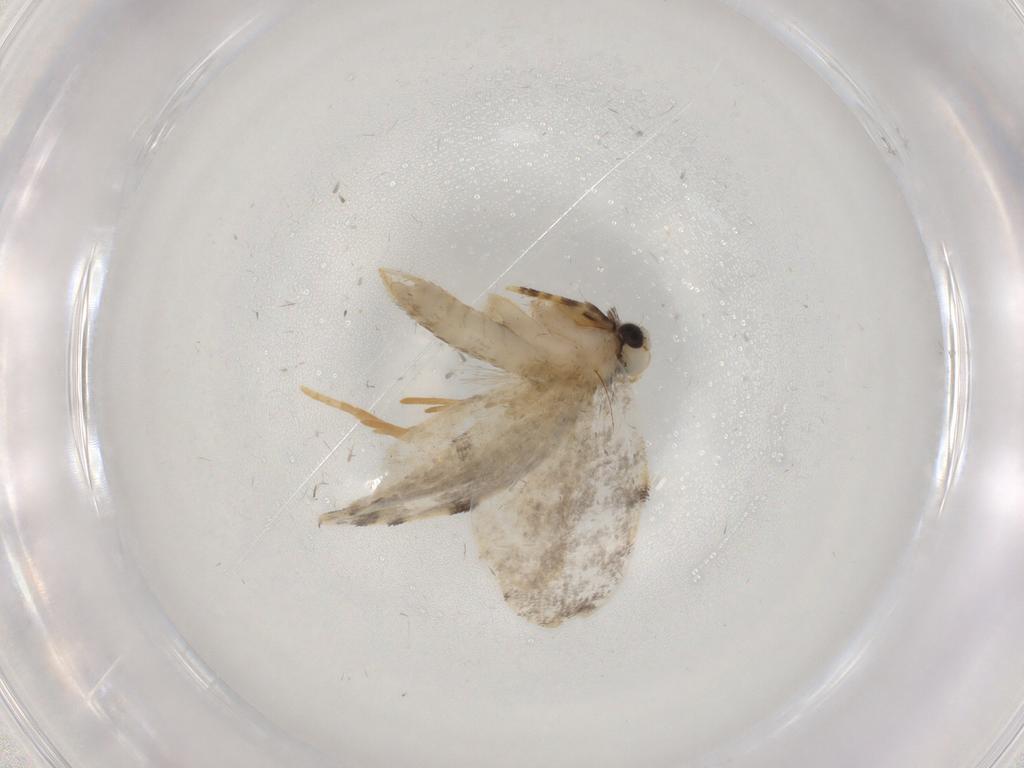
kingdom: Animalia
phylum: Arthropoda
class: Insecta
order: Lepidoptera
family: Psychidae
